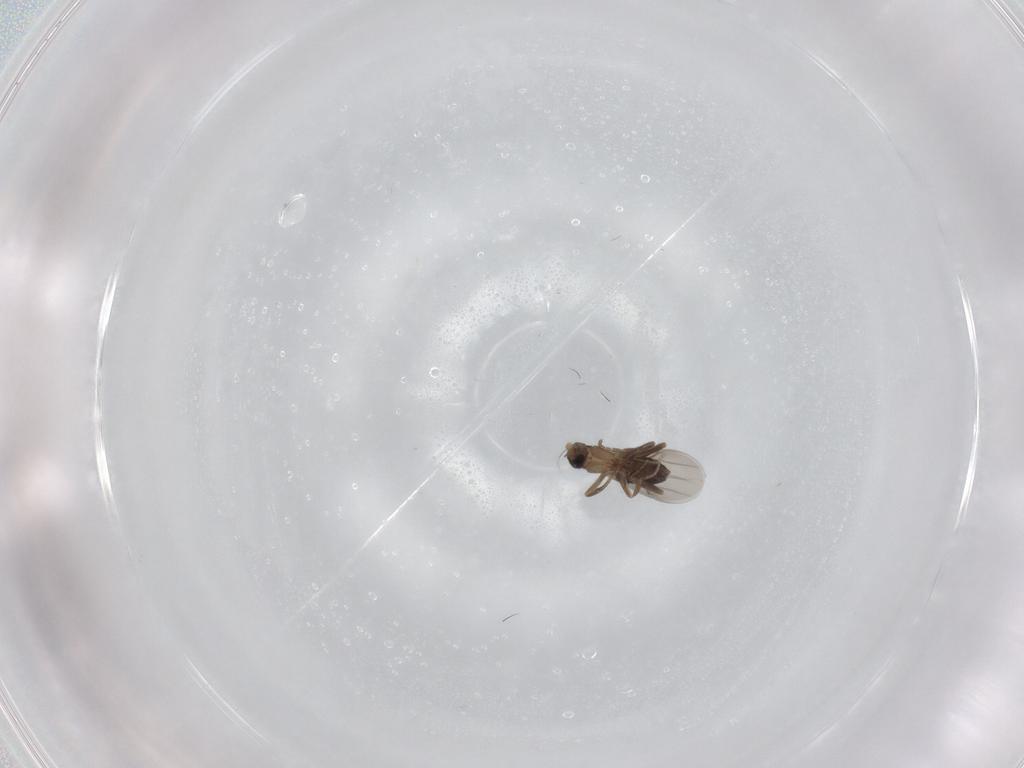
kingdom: Animalia
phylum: Arthropoda
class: Insecta
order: Diptera
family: Phoridae
